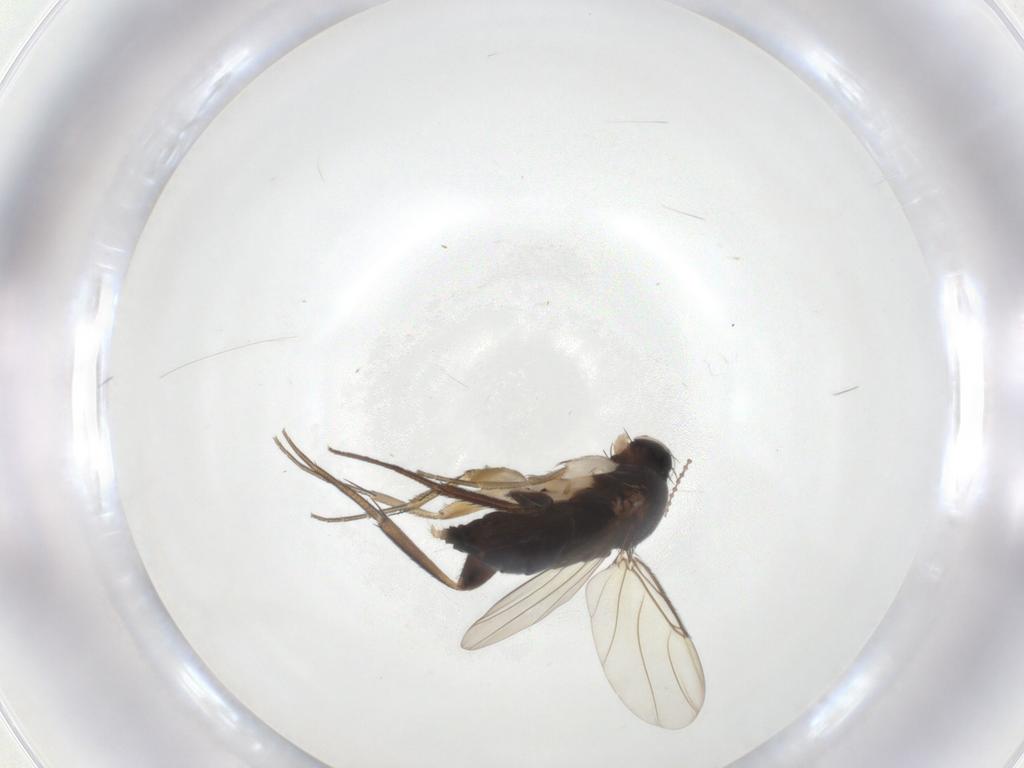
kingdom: Animalia
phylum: Arthropoda
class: Insecta
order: Diptera
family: Phoridae
